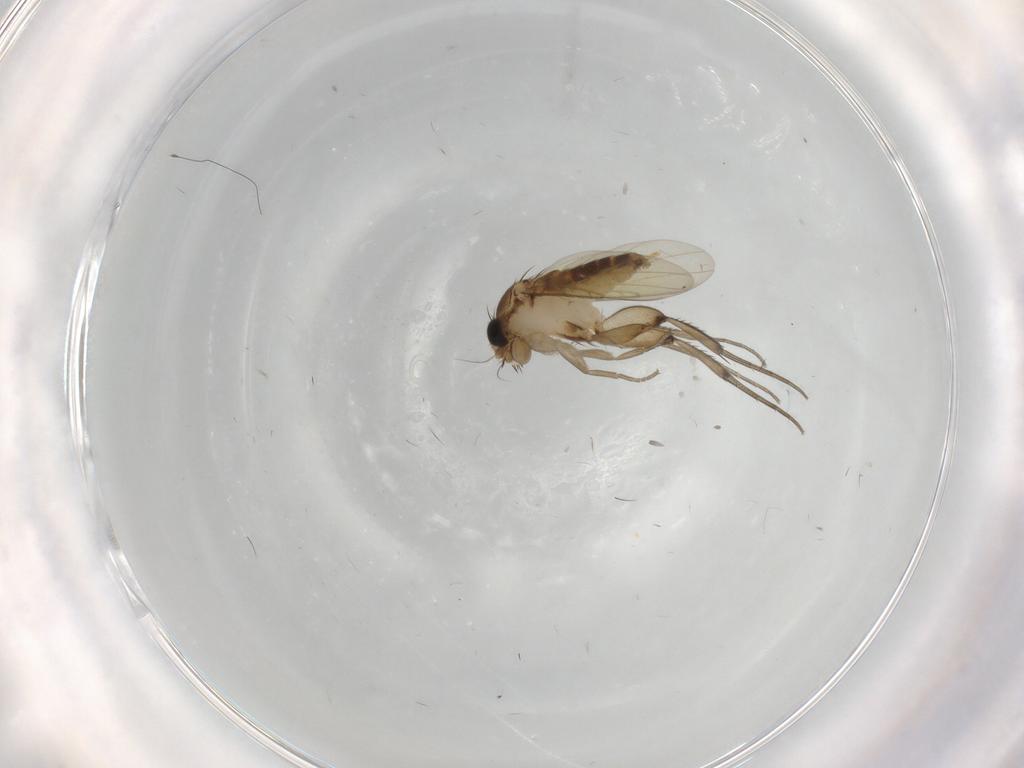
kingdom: Animalia
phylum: Arthropoda
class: Insecta
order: Diptera
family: Phoridae
